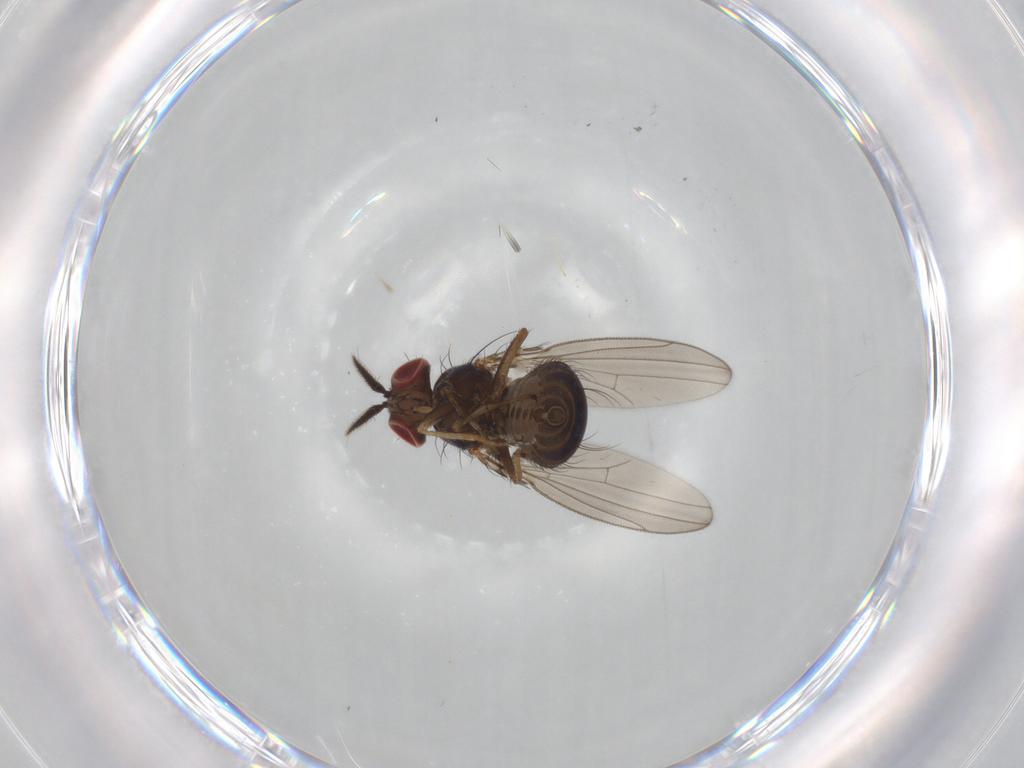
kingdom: Animalia
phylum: Arthropoda
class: Insecta
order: Diptera
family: Ephydridae
